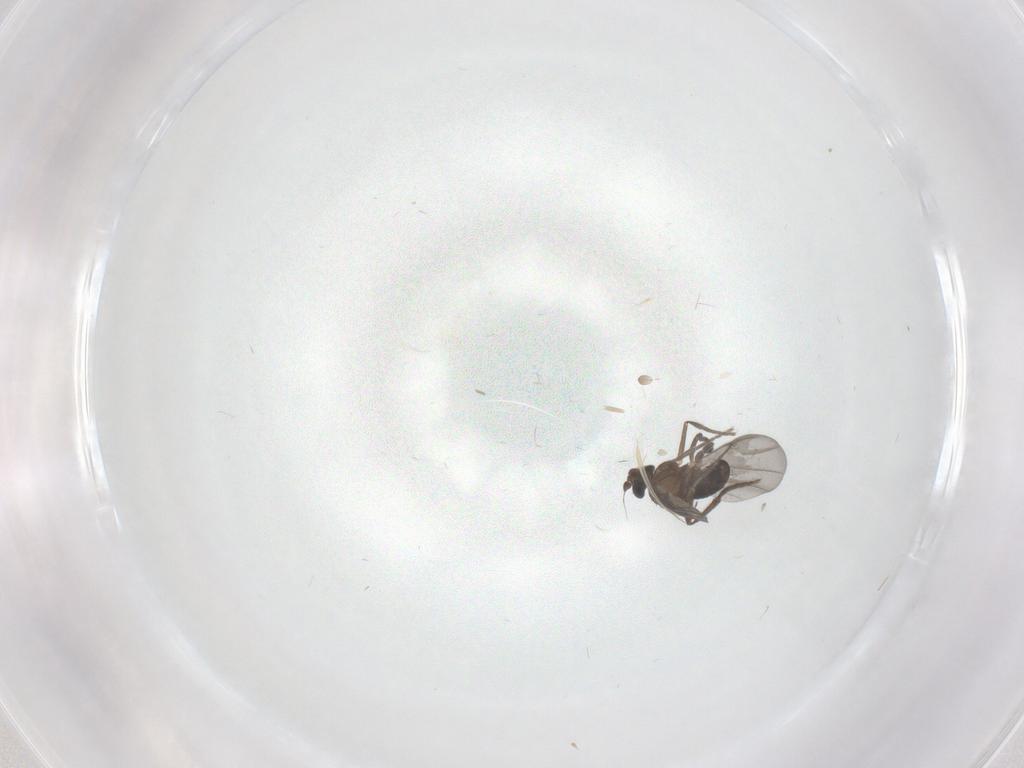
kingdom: Animalia
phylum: Arthropoda
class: Insecta
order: Diptera
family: Phoridae
